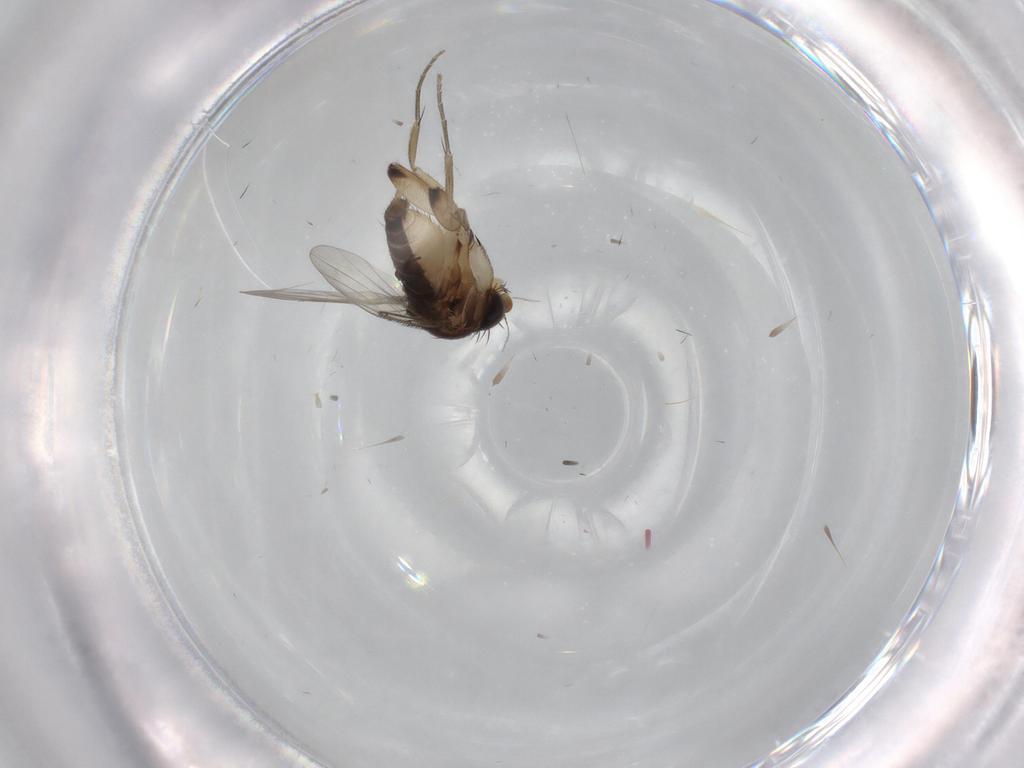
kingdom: Animalia
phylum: Arthropoda
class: Insecta
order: Diptera
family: Phoridae
